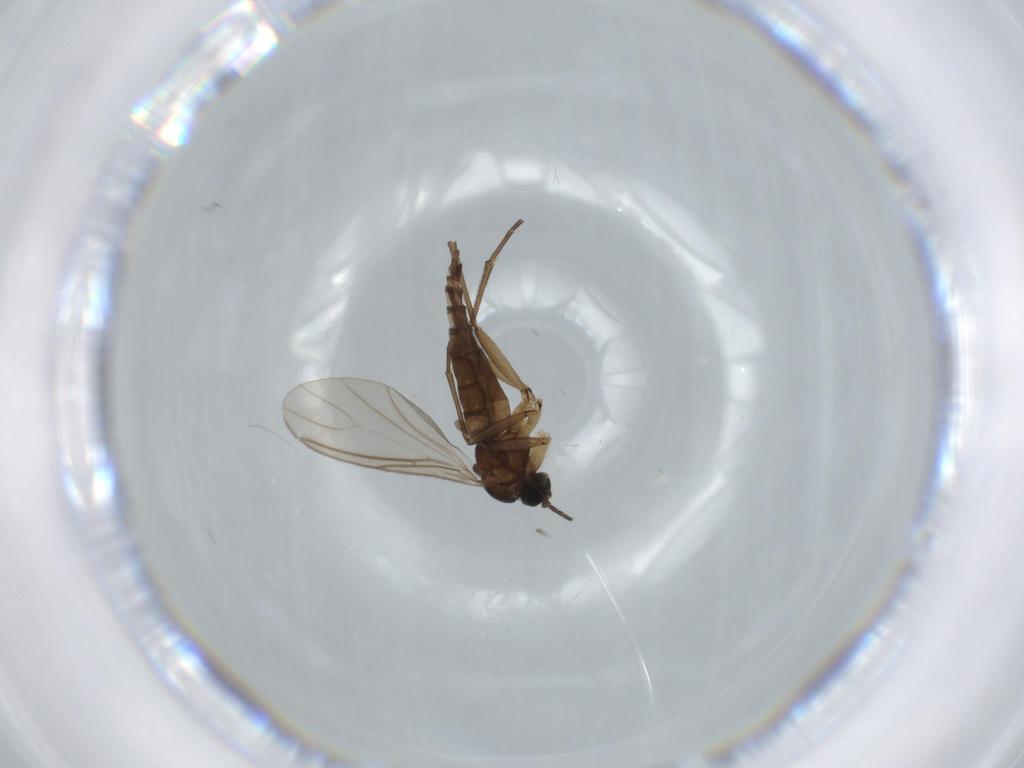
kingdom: Animalia
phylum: Arthropoda
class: Insecta
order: Diptera
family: Sciaridae
